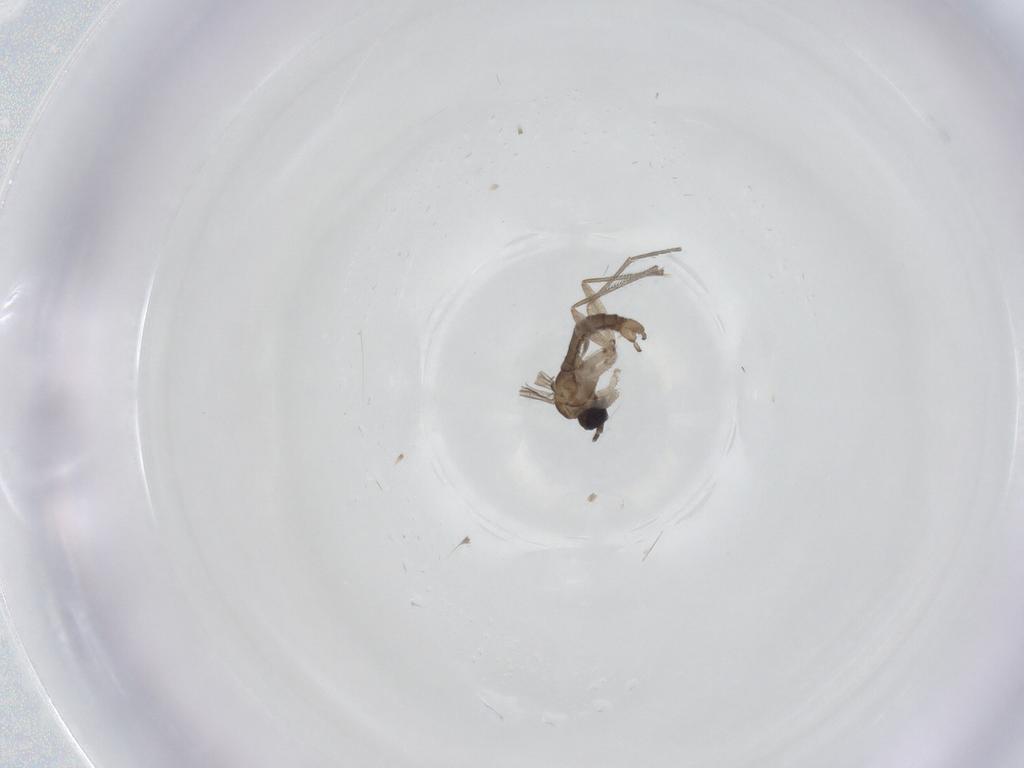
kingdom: Animalia
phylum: Arthropoda
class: Insecta
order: Diptera
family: Sciaridae
